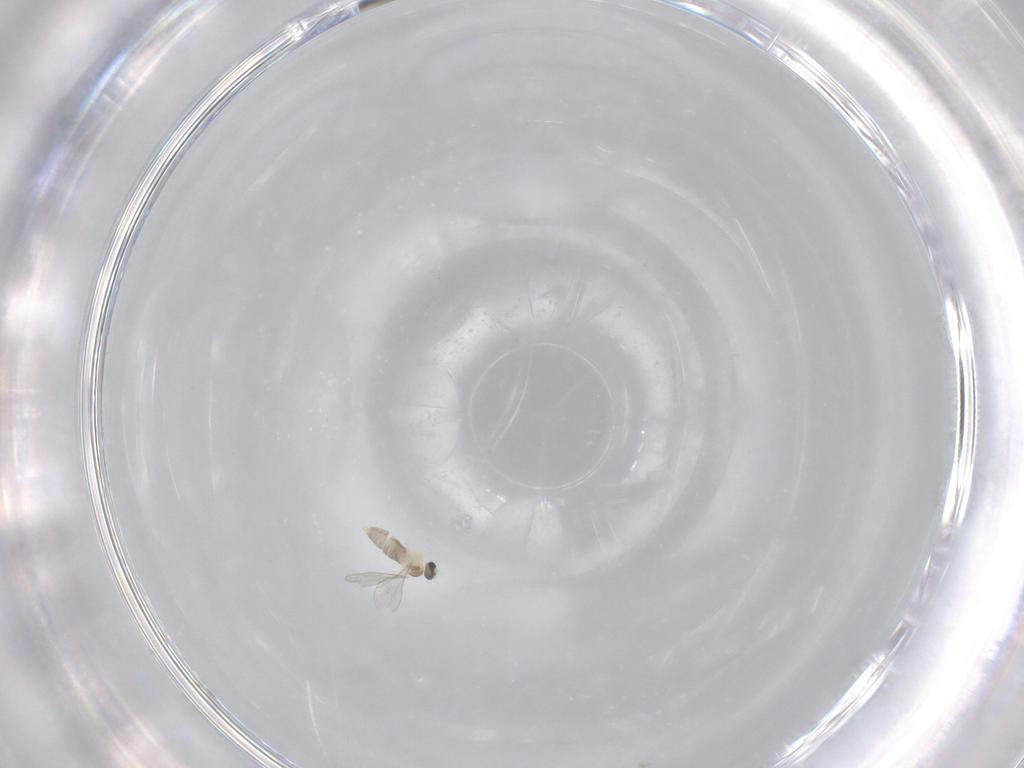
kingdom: Animalia
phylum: Arthropoda
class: Insecta
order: Diptera
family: Cecidomyiidae
